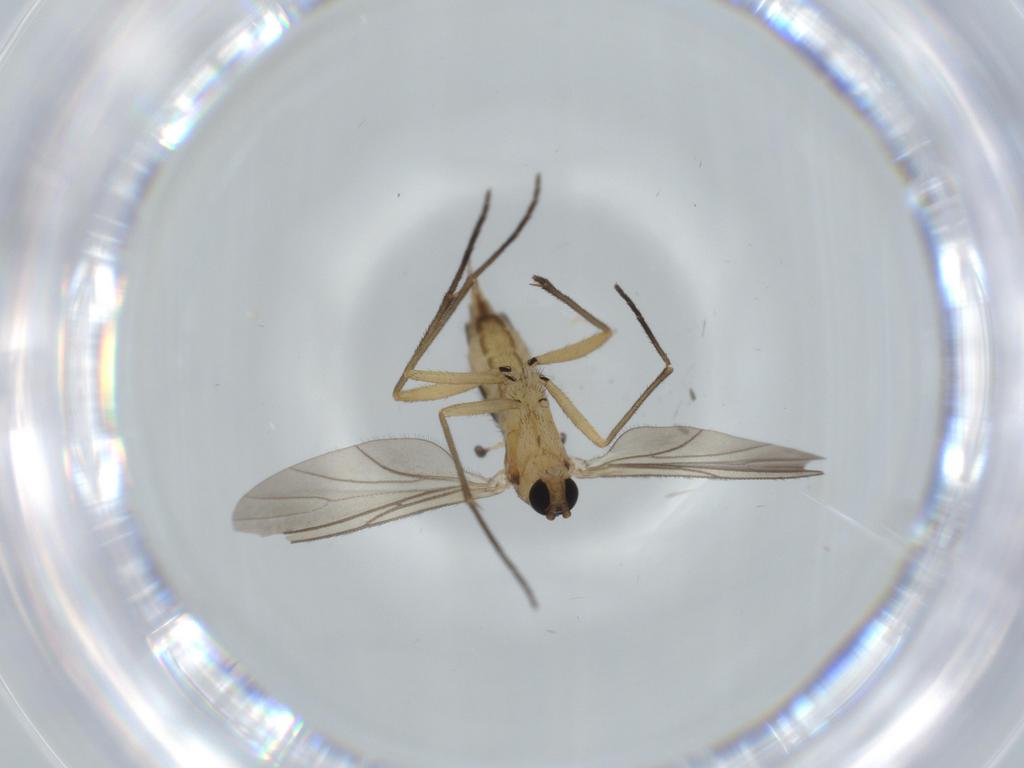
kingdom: Animalia
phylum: Arthropoda
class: Insecta
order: Diptera
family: Sciaridae
